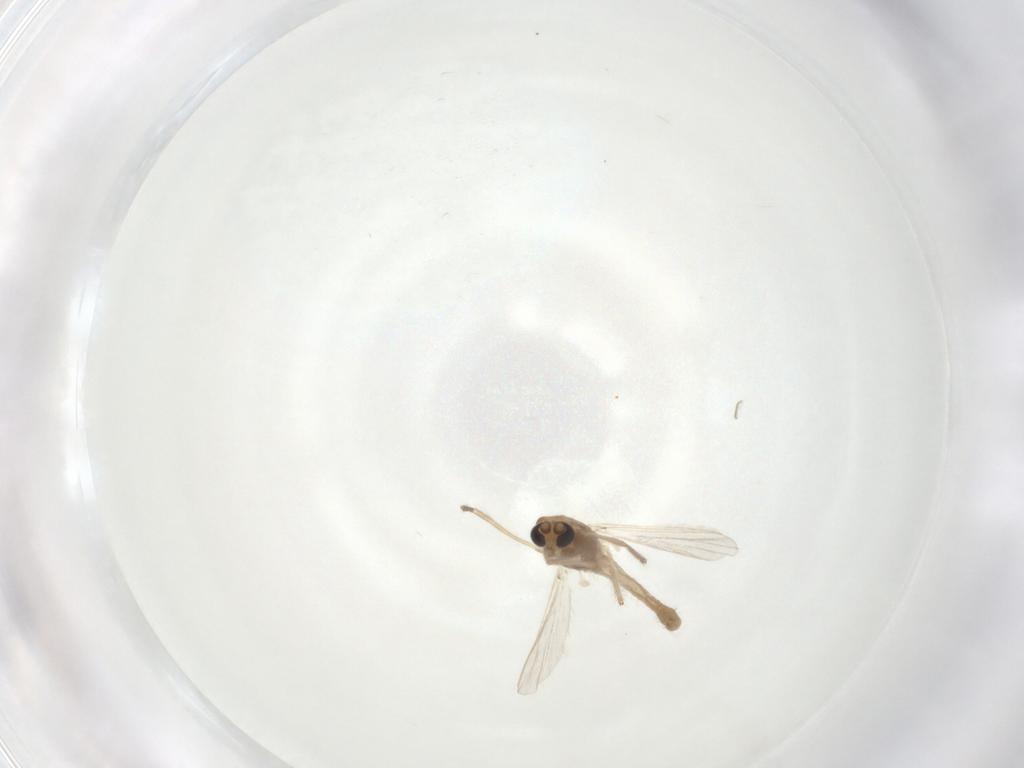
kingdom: Animalia
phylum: Arthropoda
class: Insecta
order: Diptera
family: Chironomidae
